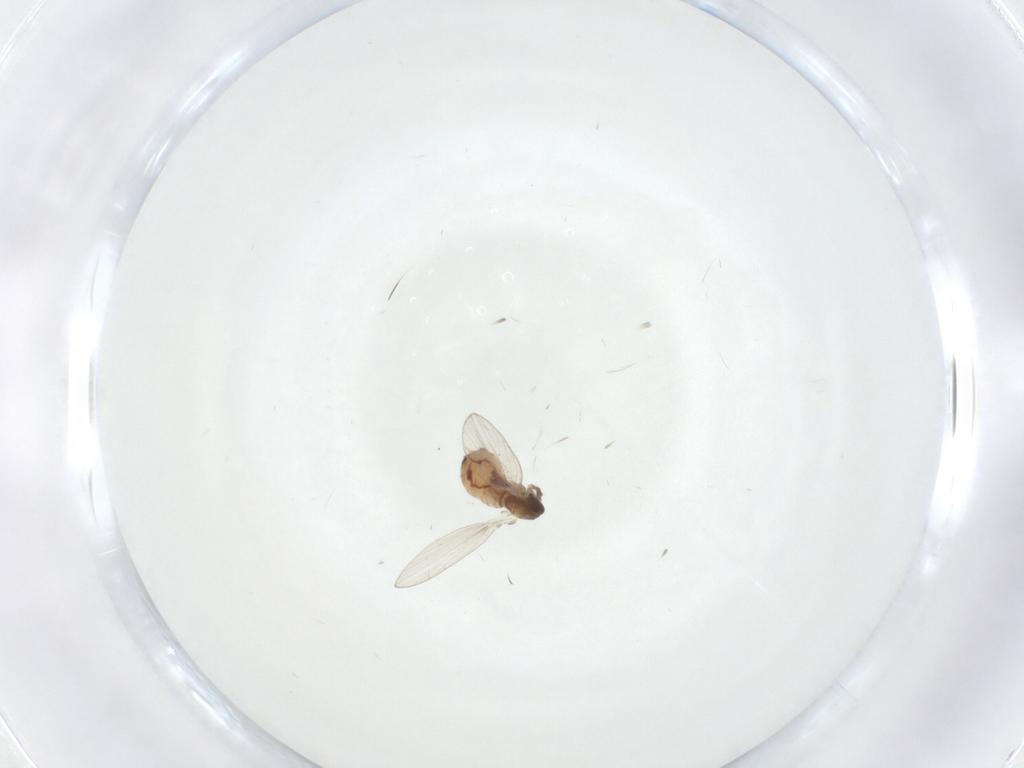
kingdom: Animalia
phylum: Arthropoda
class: Insecta
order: Diptera
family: Psychodidae
